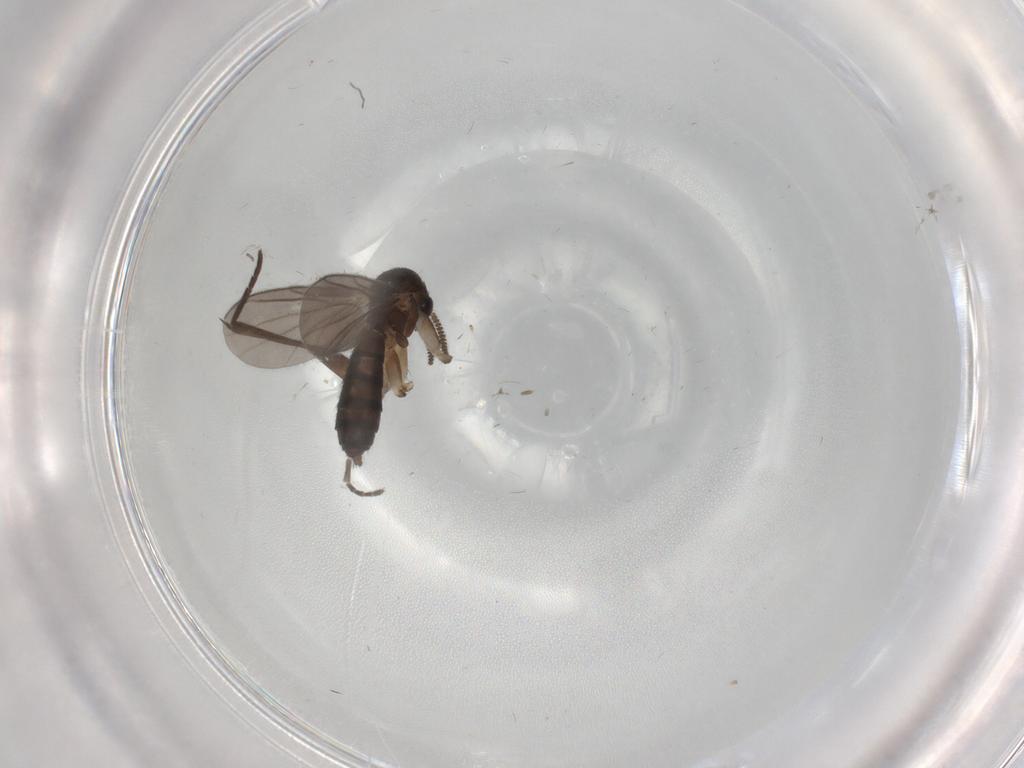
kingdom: Animalia
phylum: Arthropoda
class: Insecta
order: Diptera
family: Mycetophilidae
